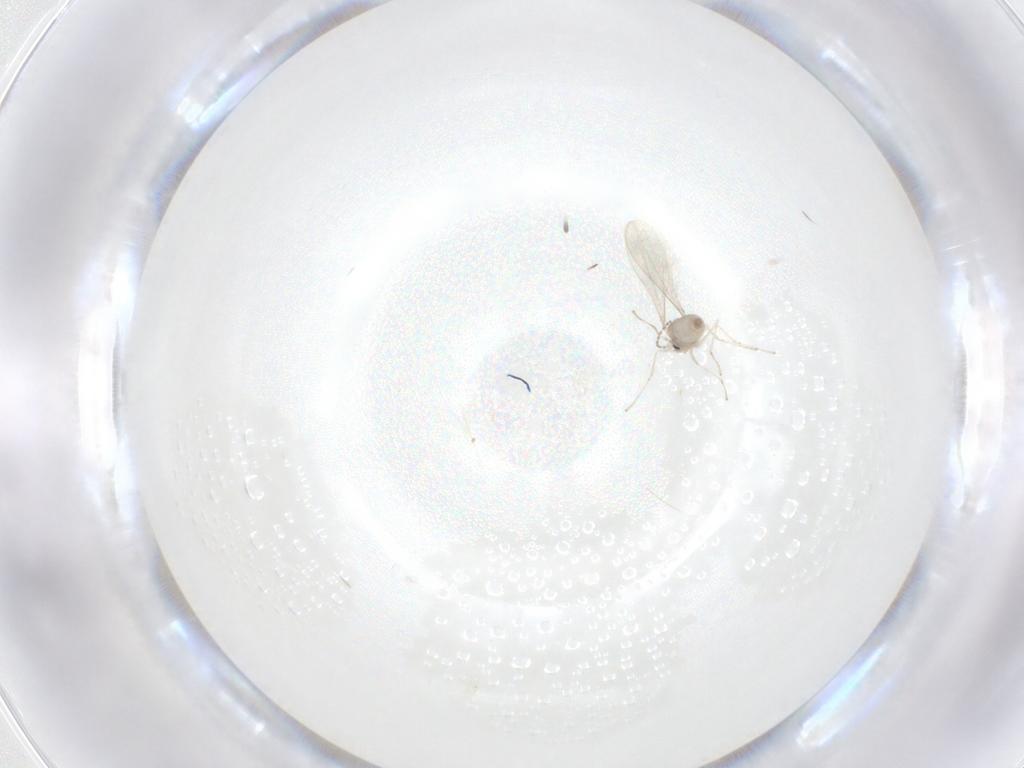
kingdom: Animalia
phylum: Arthropoda
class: Insecta
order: Diptera
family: Cecidomyiidae
